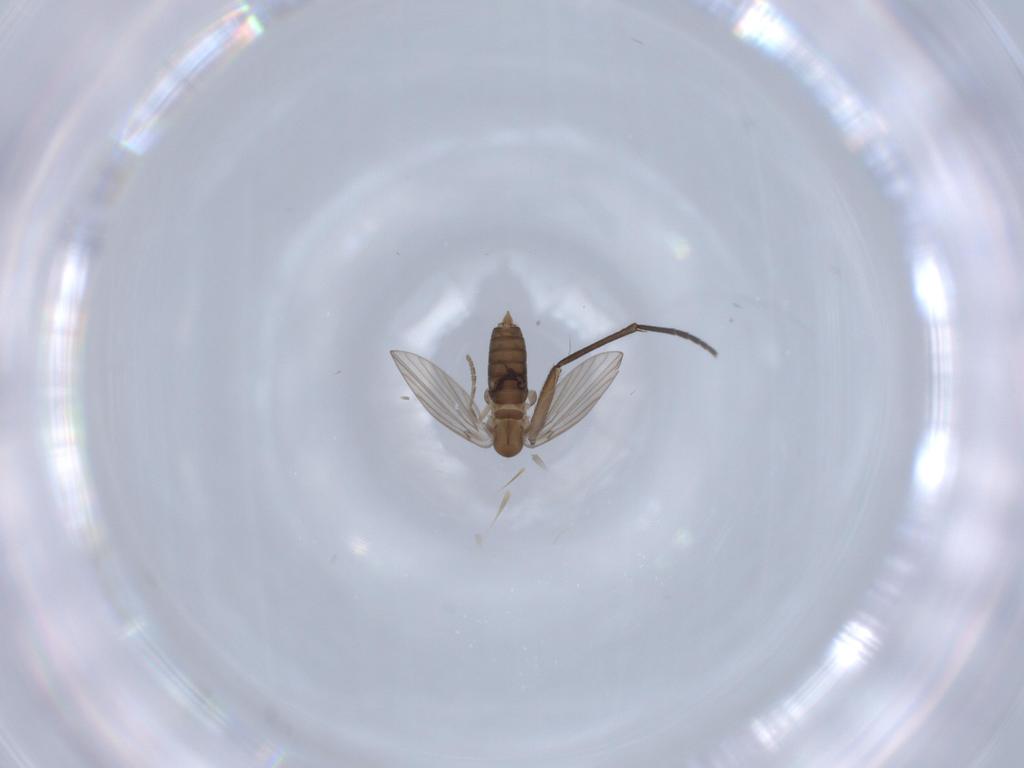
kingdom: Animalia
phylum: Arthropoda
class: Insecta
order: Diptera
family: Sciaridae
